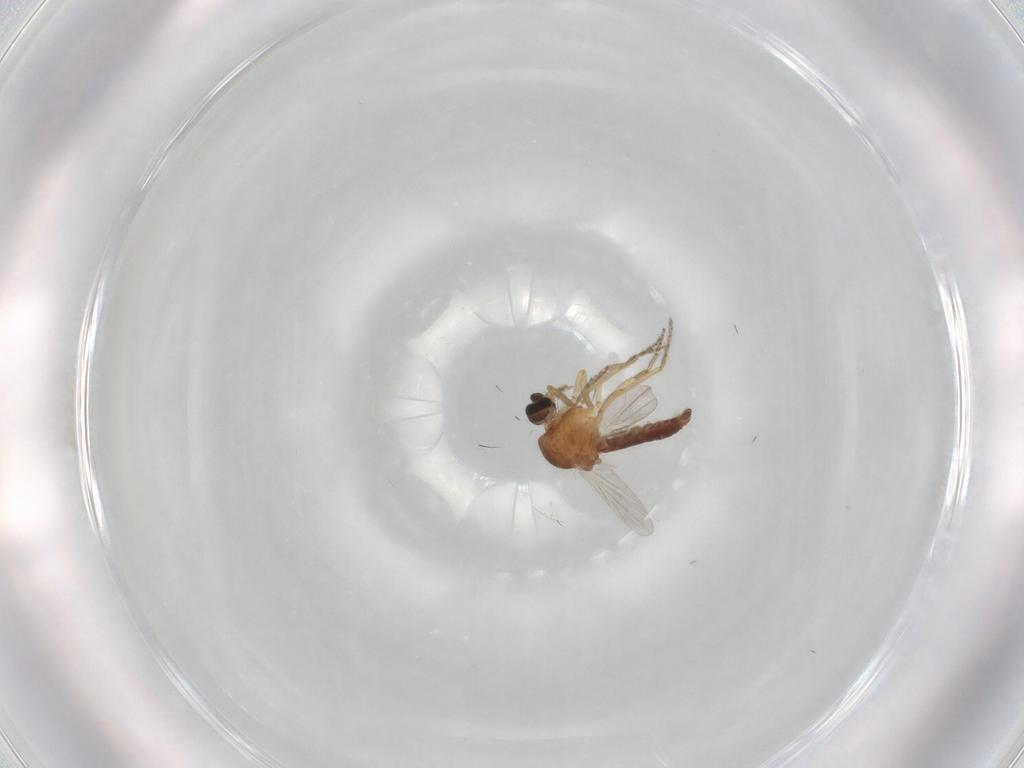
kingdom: Animalia
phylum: Arthropoda
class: Insecta
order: Diptera
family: Ceratopogonidae
